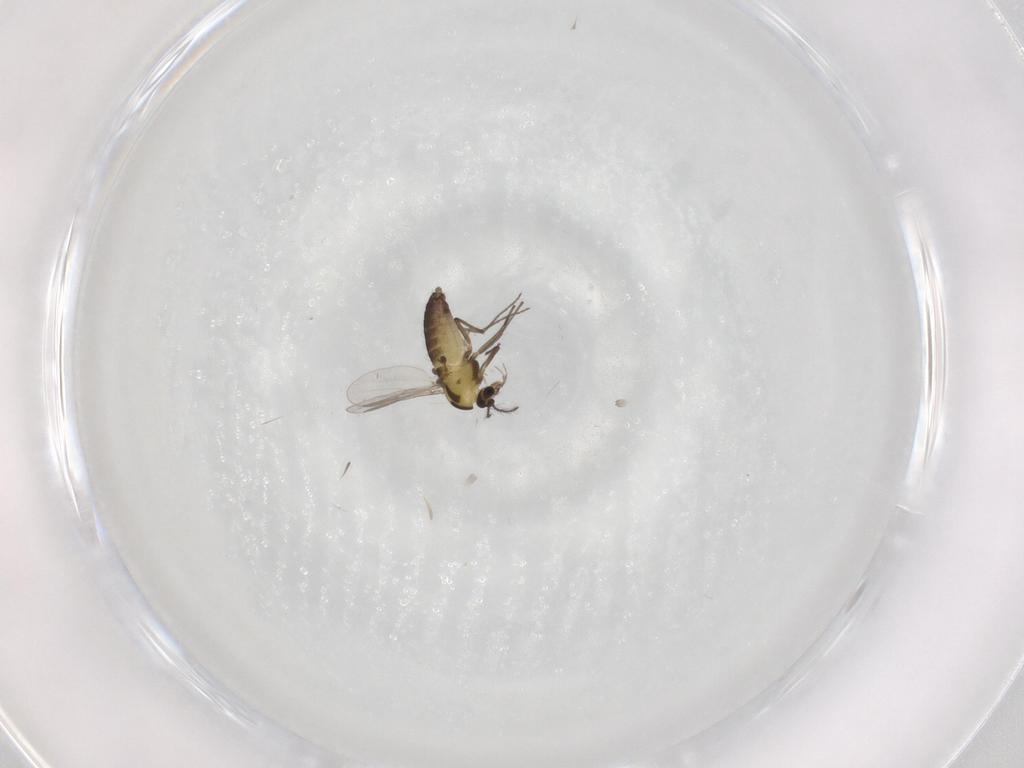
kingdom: Animalia
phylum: Arthropoda
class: Insecta
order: Diptera
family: Chironomidae
